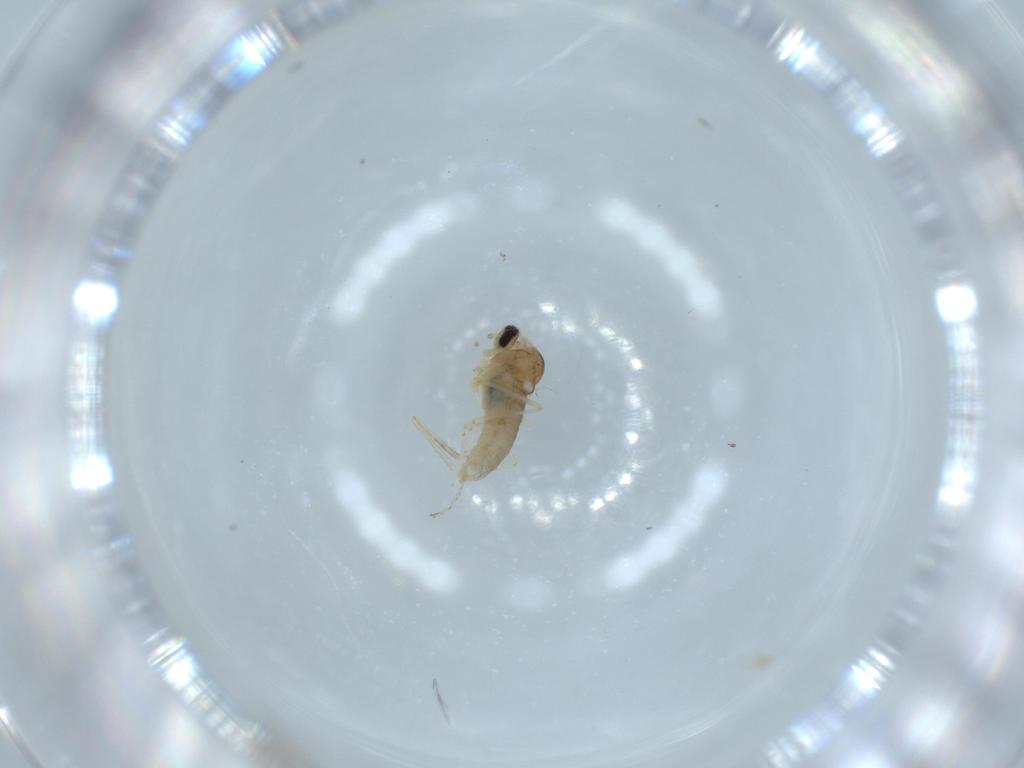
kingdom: Animalia
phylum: Arthropoda
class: Insecta
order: Diptera
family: Cecidomyiidae
